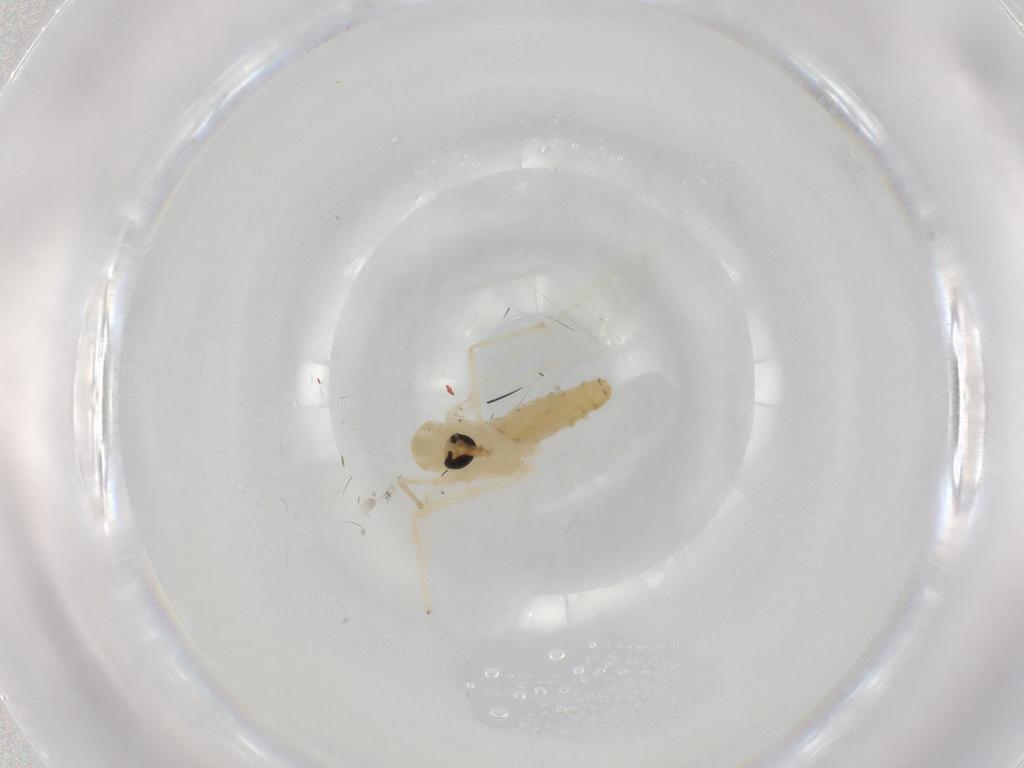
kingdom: Animalia
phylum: Arthropoda
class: Insecta
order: Diptera
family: Chironomidae
